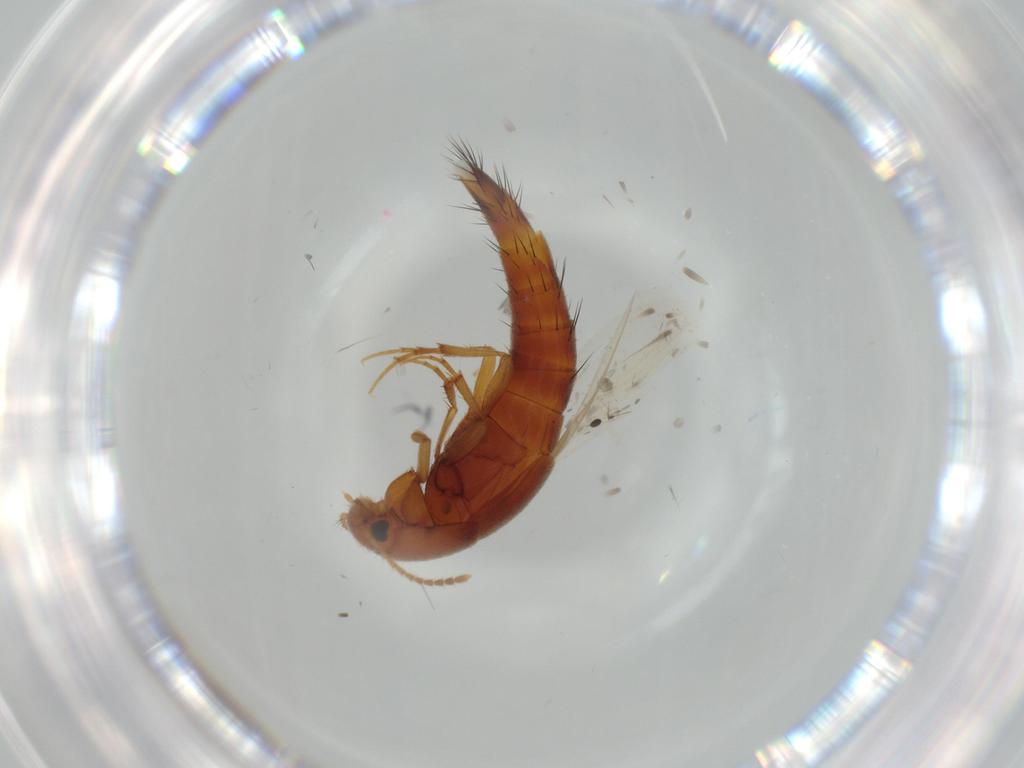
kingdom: Animalia
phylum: Arthropoda
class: Insecta
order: Coleoptera
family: Staphylinidae
